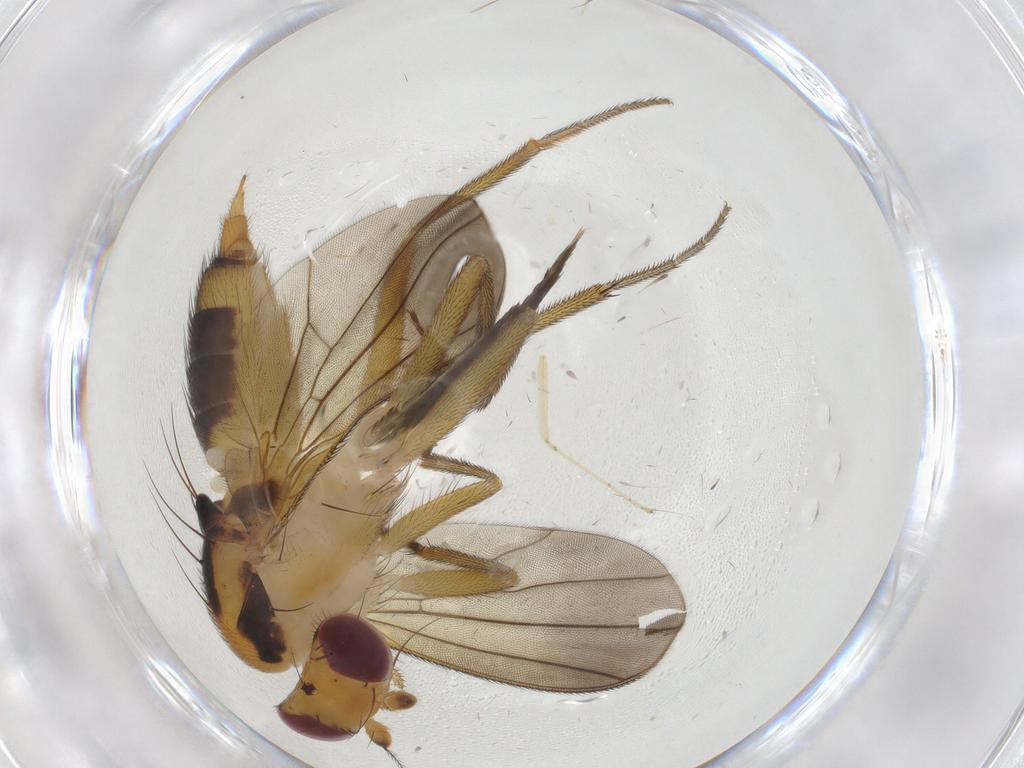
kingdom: Animalia
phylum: Arthropoda
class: Insecta
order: Diptera
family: Clusiidae
